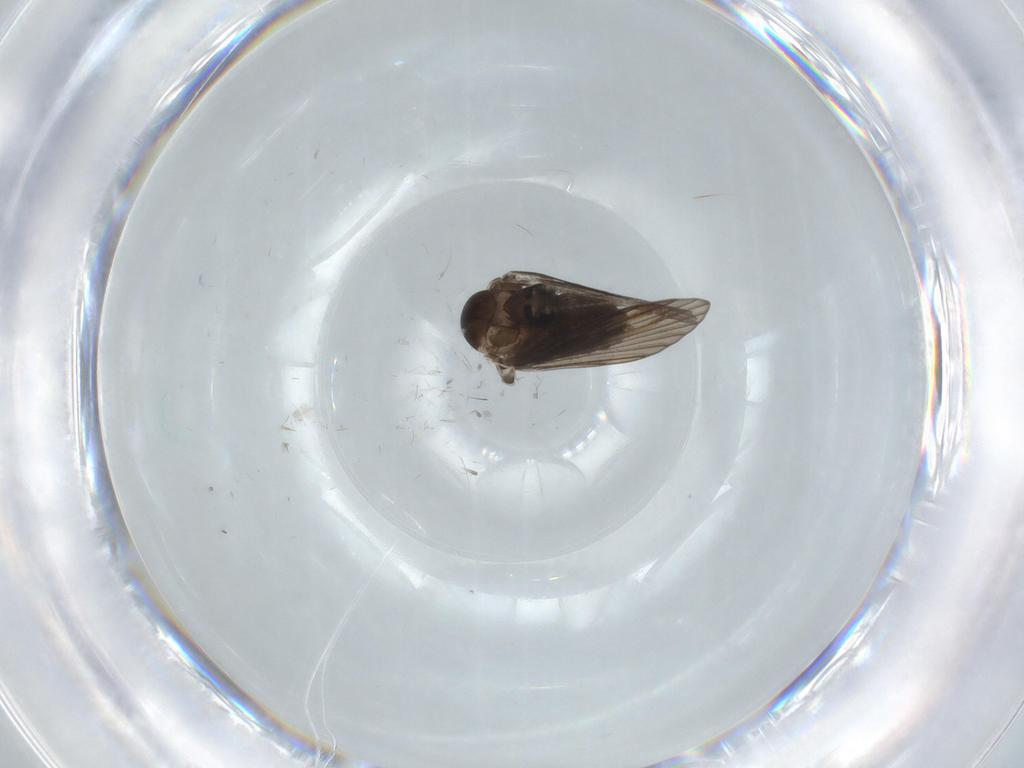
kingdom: Animalia
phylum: Arthropoda
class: Insecta
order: Diptera
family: Psychodidae
